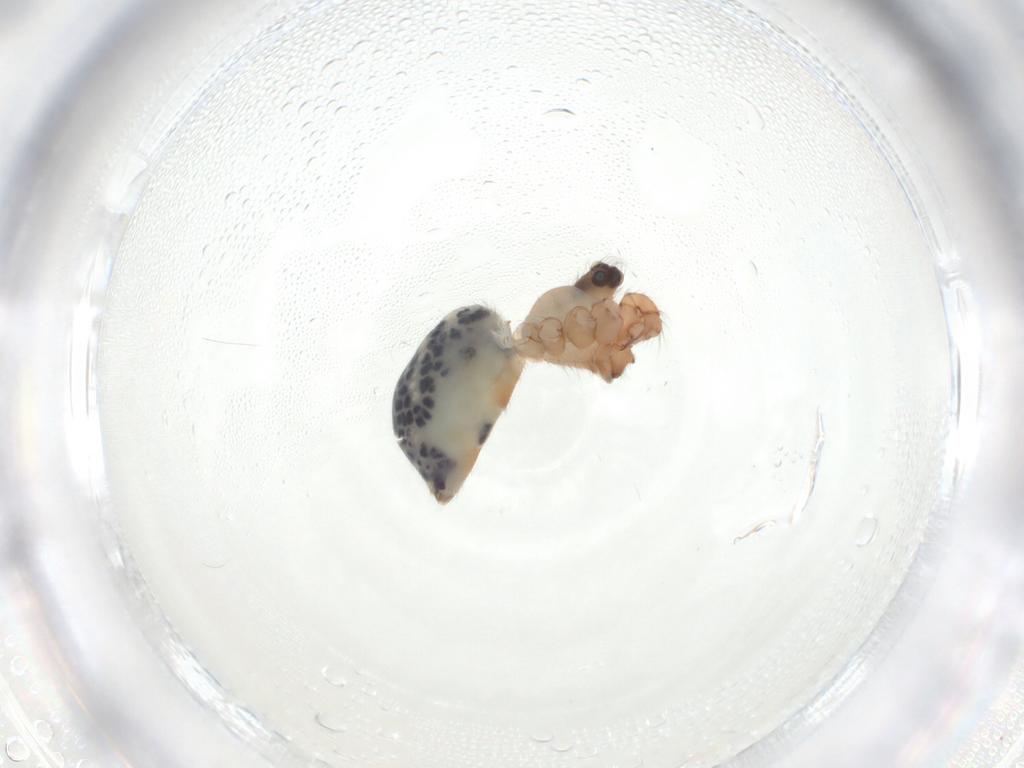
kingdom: Animalia
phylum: Arthropoda
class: Arachnida
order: Araneae
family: Pholcidae
